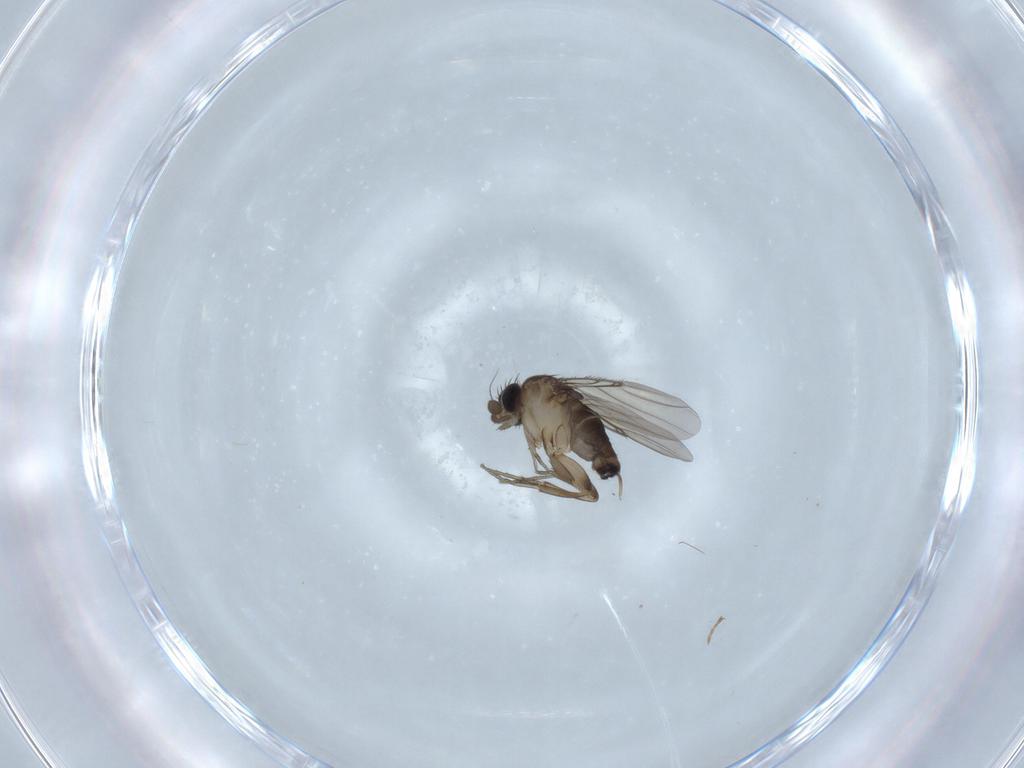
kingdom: Animalia
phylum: Arthropoda
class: Insecta
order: Diptera
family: Phoridae
